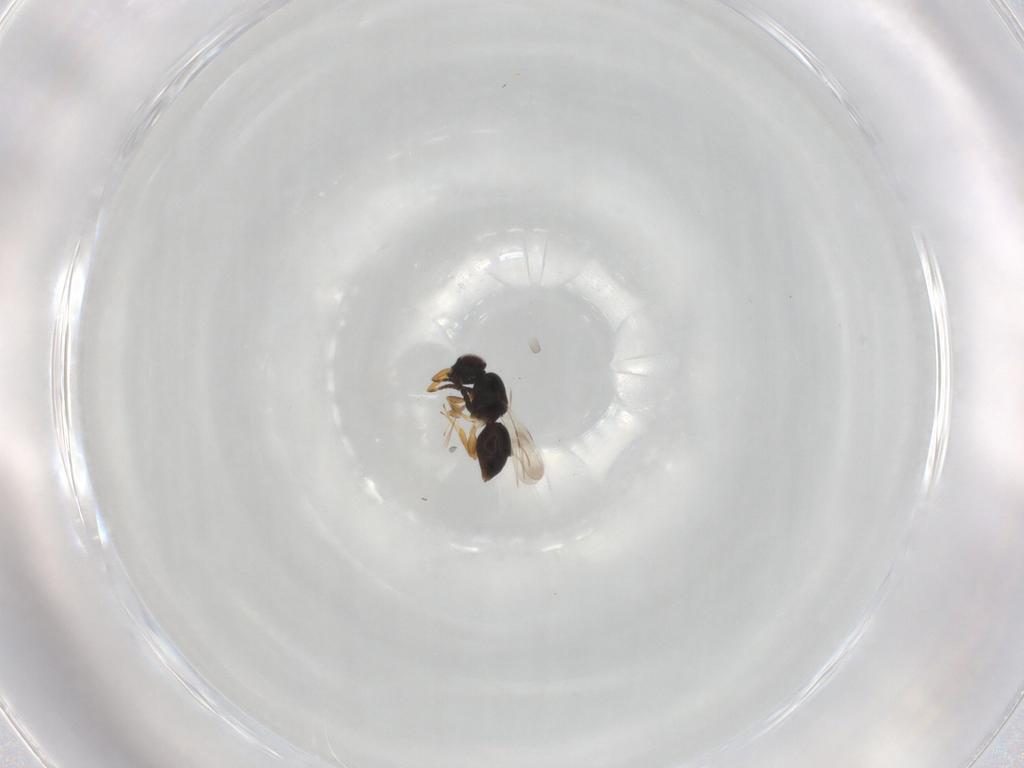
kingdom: Animalia
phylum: Arthropoda
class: Insecta
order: Hymenoptera
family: Ceraphronidae
